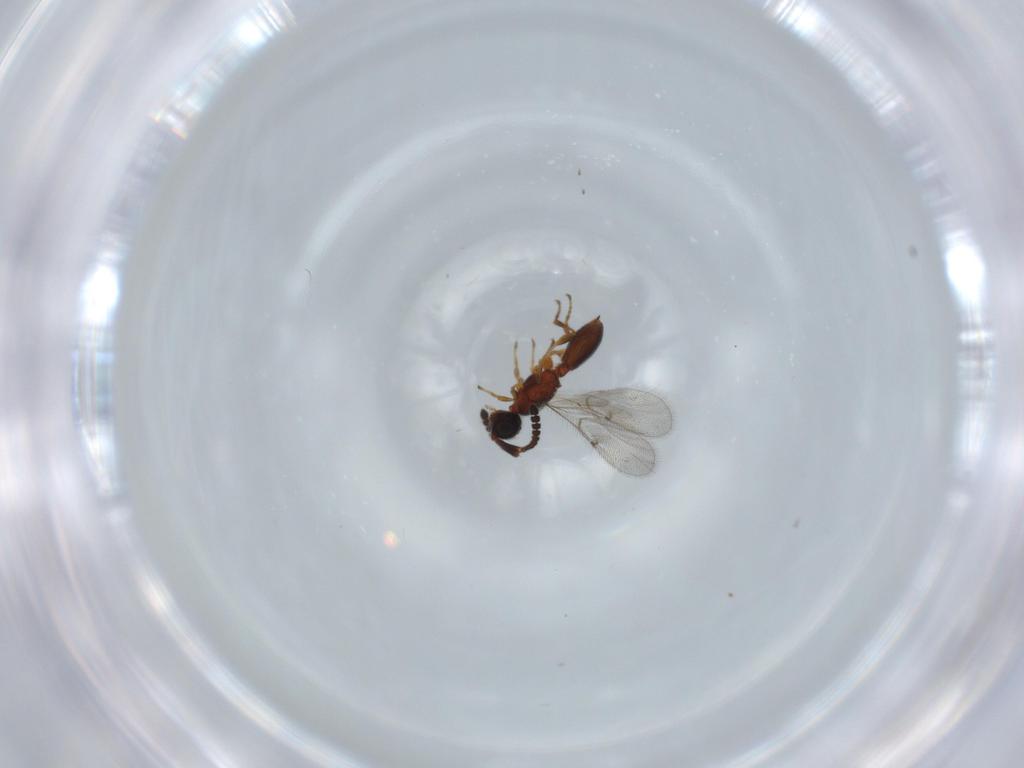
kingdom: Animalia
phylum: Arthropoda
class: Insecta
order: Hymenoptera
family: Diapriidae
